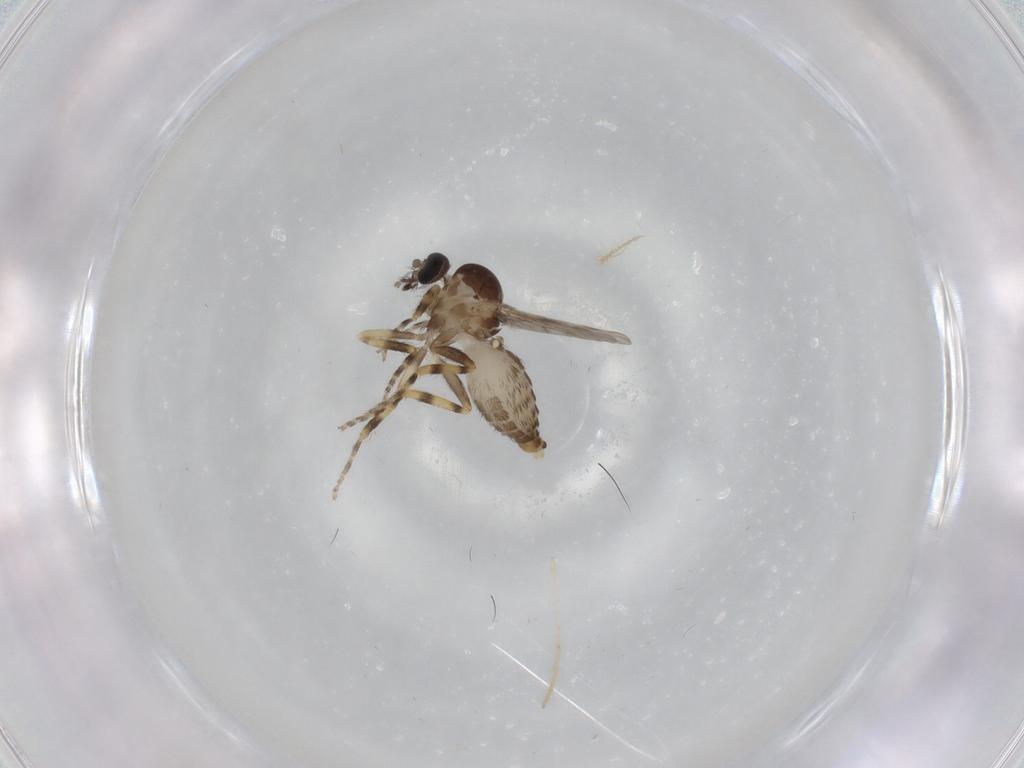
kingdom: Animalia
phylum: Arthropoda
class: Insecta
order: Diptera
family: Ceratopogonidae
